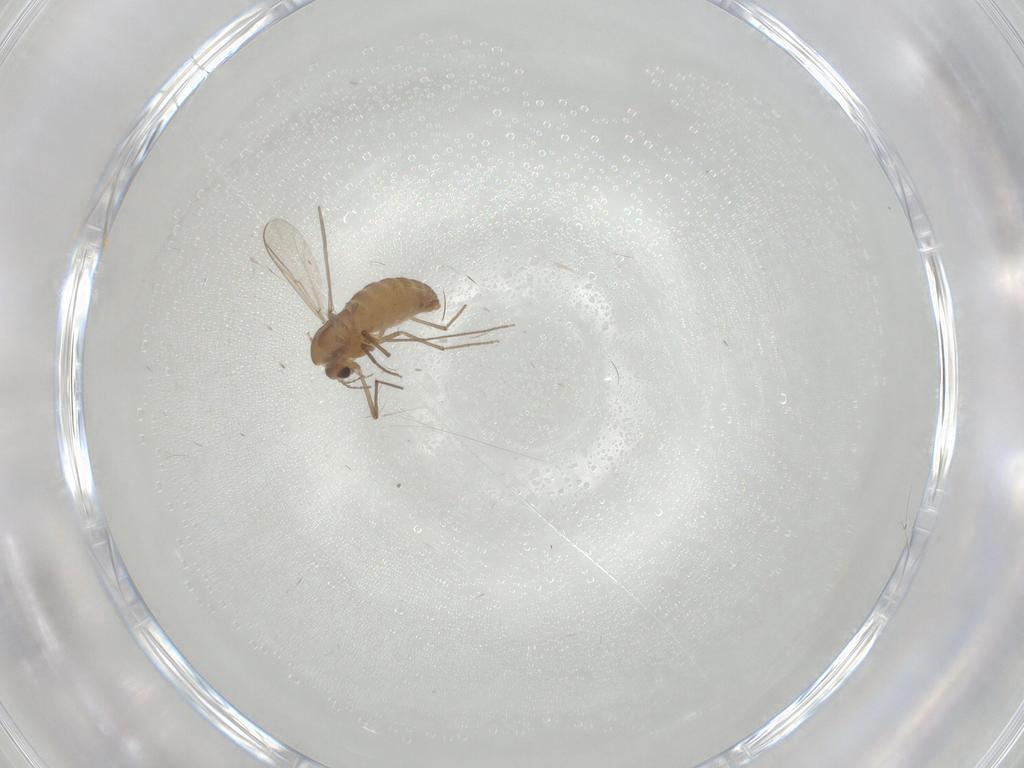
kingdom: Animalia
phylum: Arthropoda
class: Insecta
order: Diptera
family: Chironomidae
